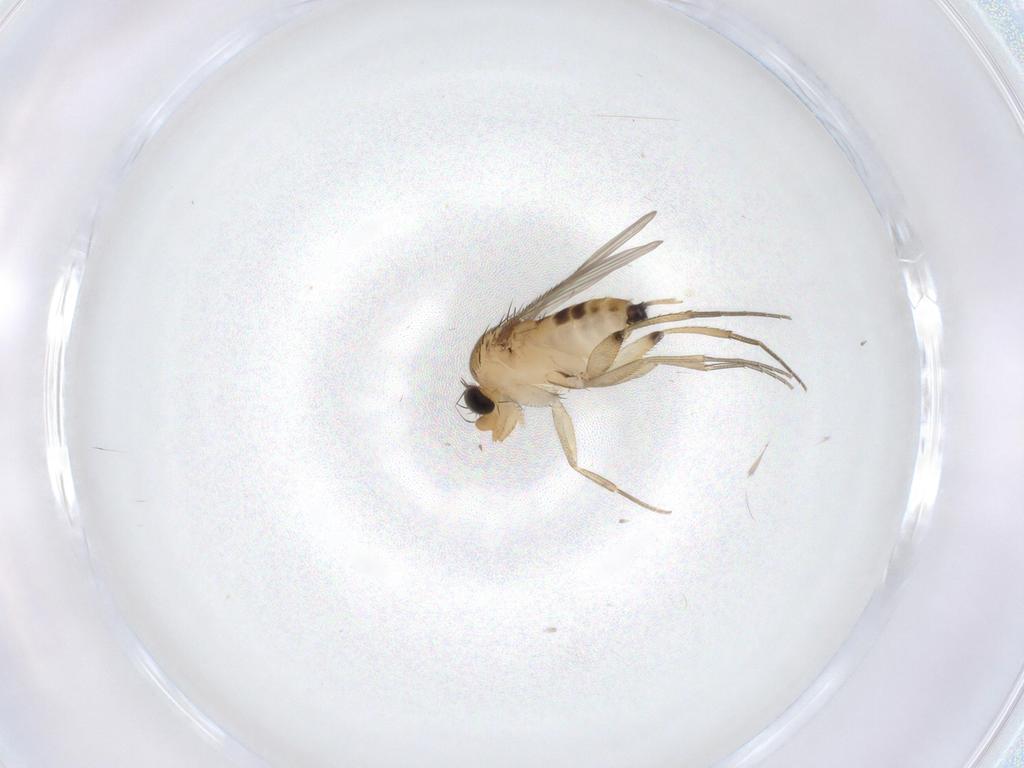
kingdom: Animalia
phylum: Arthropoda
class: Insecta
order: Diptera
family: Phoridae
